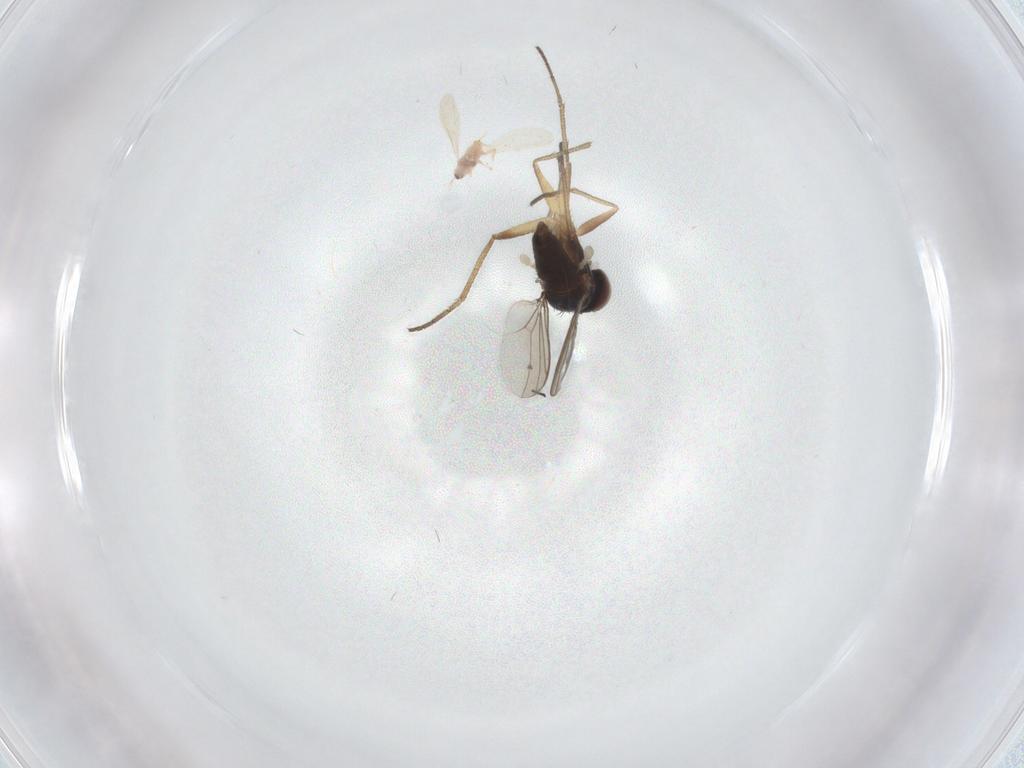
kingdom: Animalia
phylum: Arthropoda
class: Insecta
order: Diptera
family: Dolichopodidae
